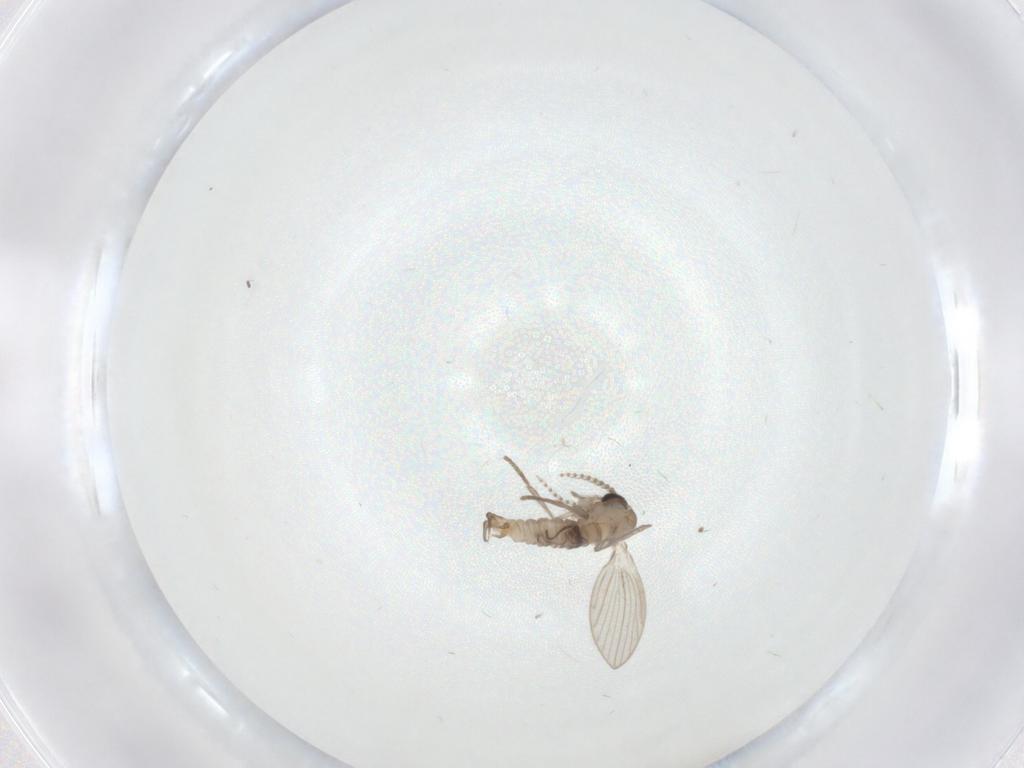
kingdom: Animalia
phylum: Arthropoda
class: Insecta
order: Diptera
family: Psychodidae
